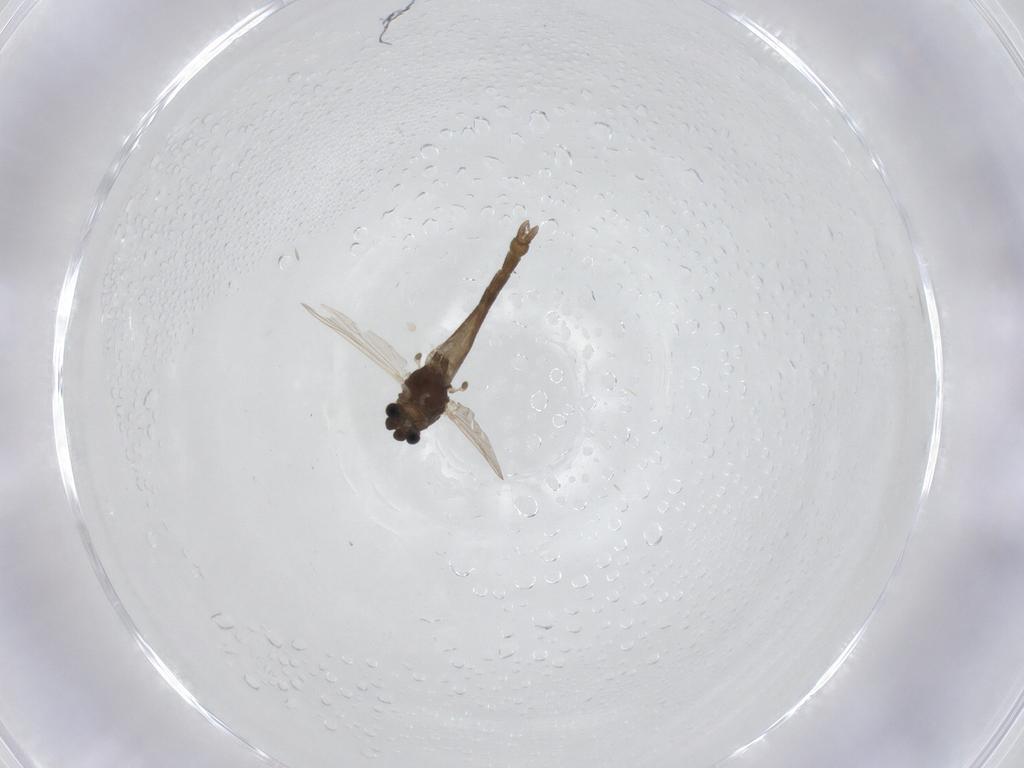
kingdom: Animalia
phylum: Arthropoda
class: Insecta
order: Diptera
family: Chironomidae
